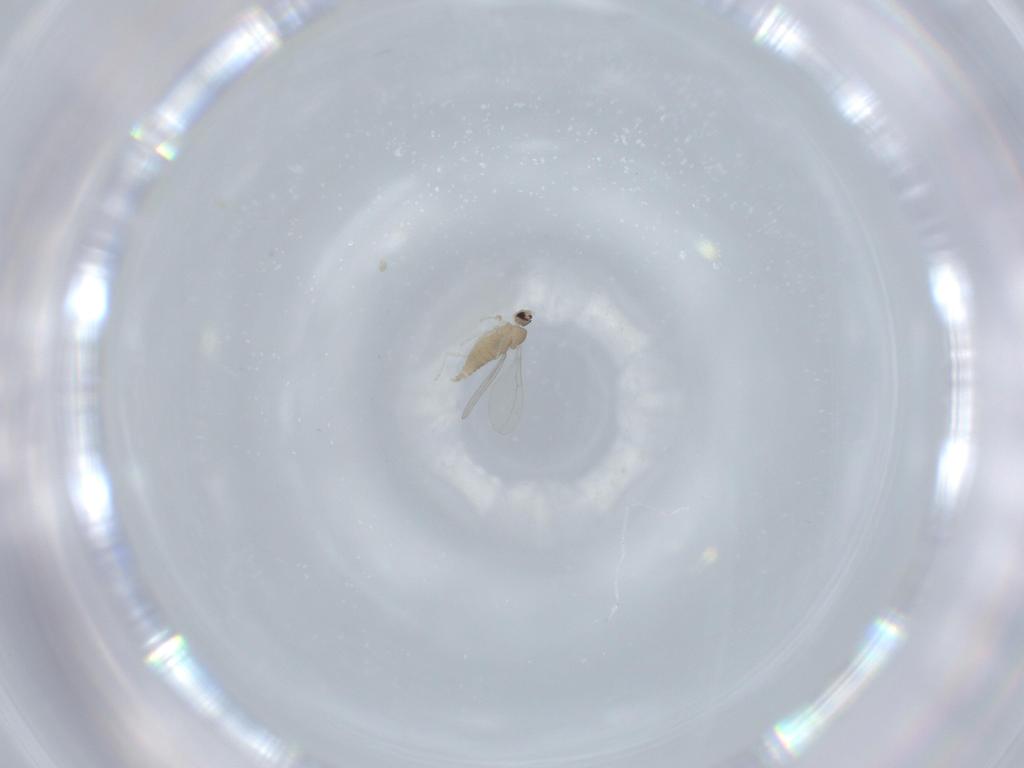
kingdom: Animalia
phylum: Arthropoda
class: Insecta
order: Diptera
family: Cecidomyiidae
